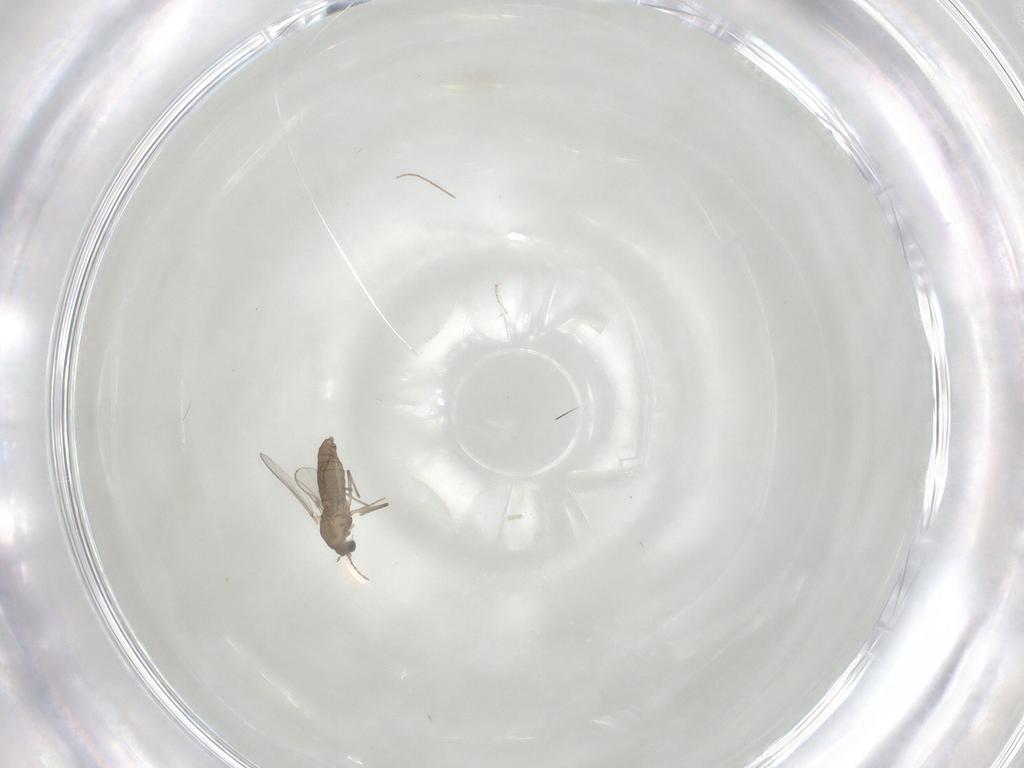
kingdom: Animalia
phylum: Arthropoda
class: Insecta
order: Diptera
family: Chironomidae
